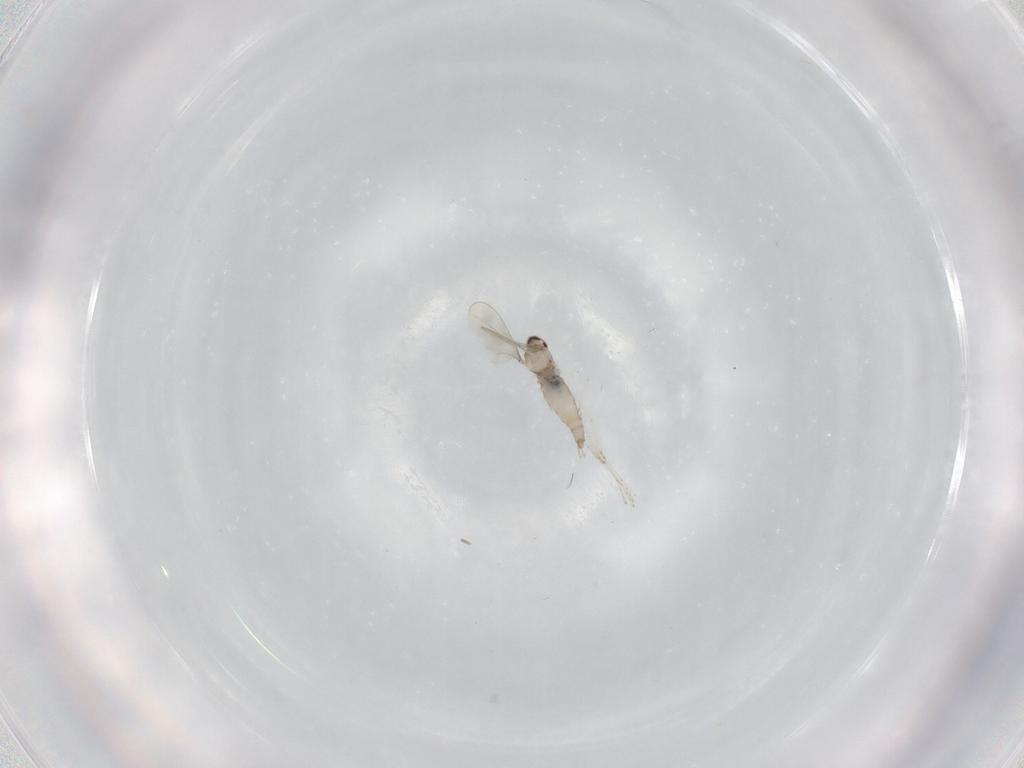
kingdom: Animalia
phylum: Arthropoda
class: Insecta
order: Diptera
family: Cecidomyiidae
